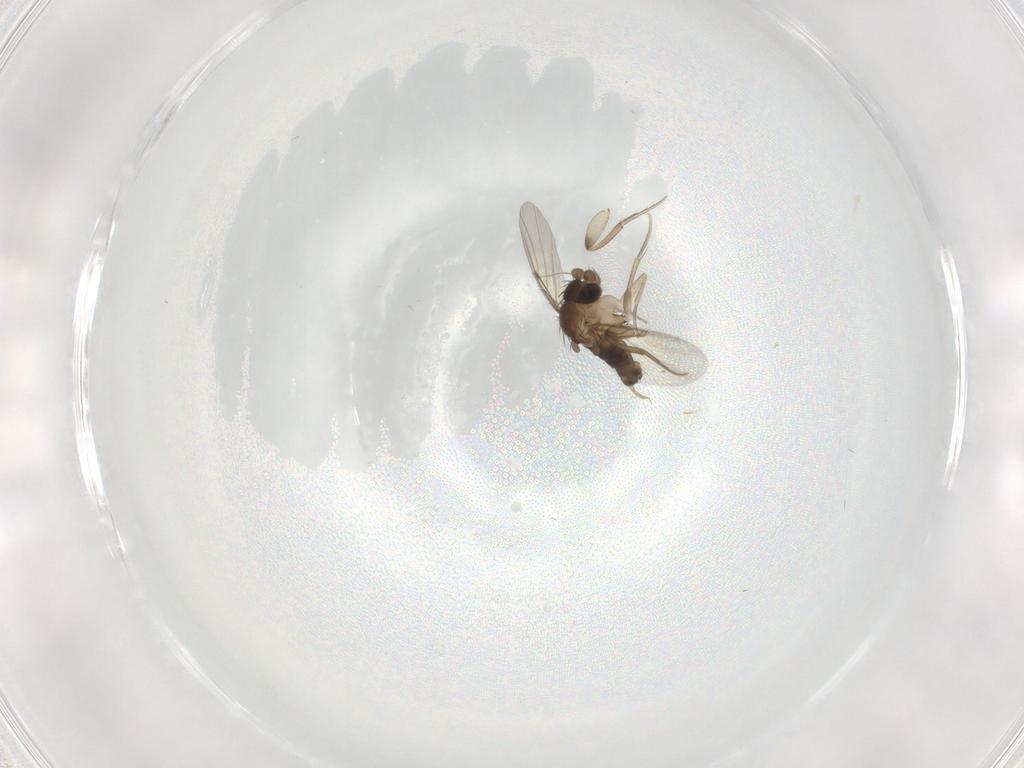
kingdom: Animalia
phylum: Arthropoda
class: Insecta
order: Diptera
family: Phoridae
